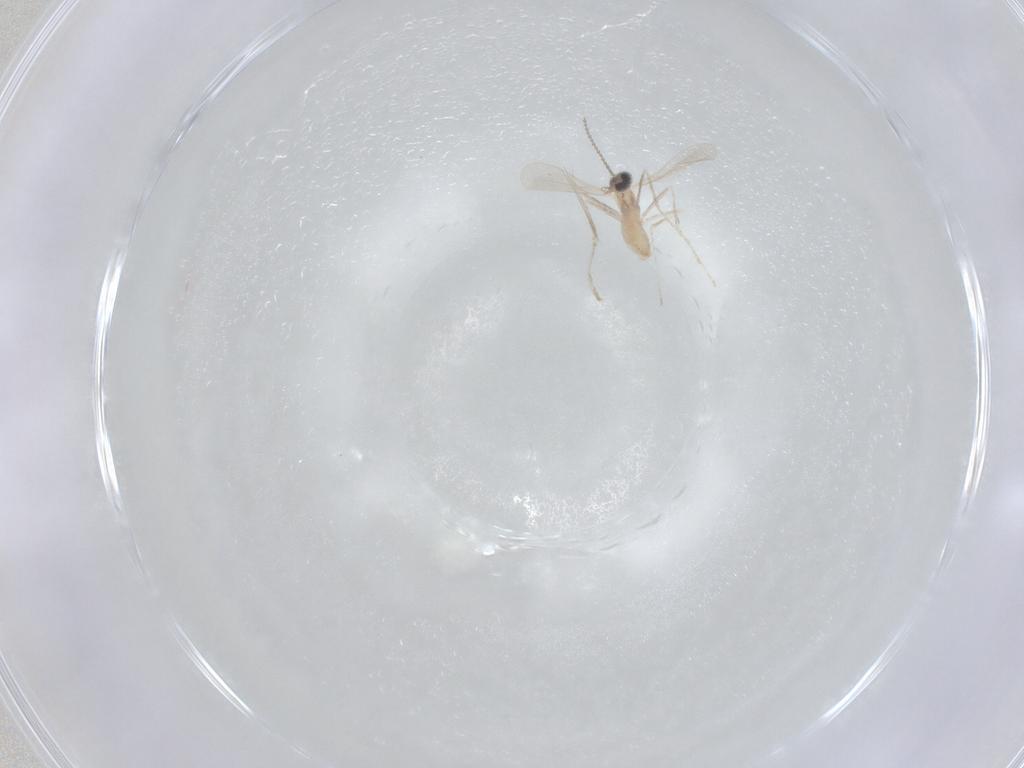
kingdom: Animalia
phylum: Arthropoda
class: Insecta
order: Diptera
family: Ceratopogonidae
